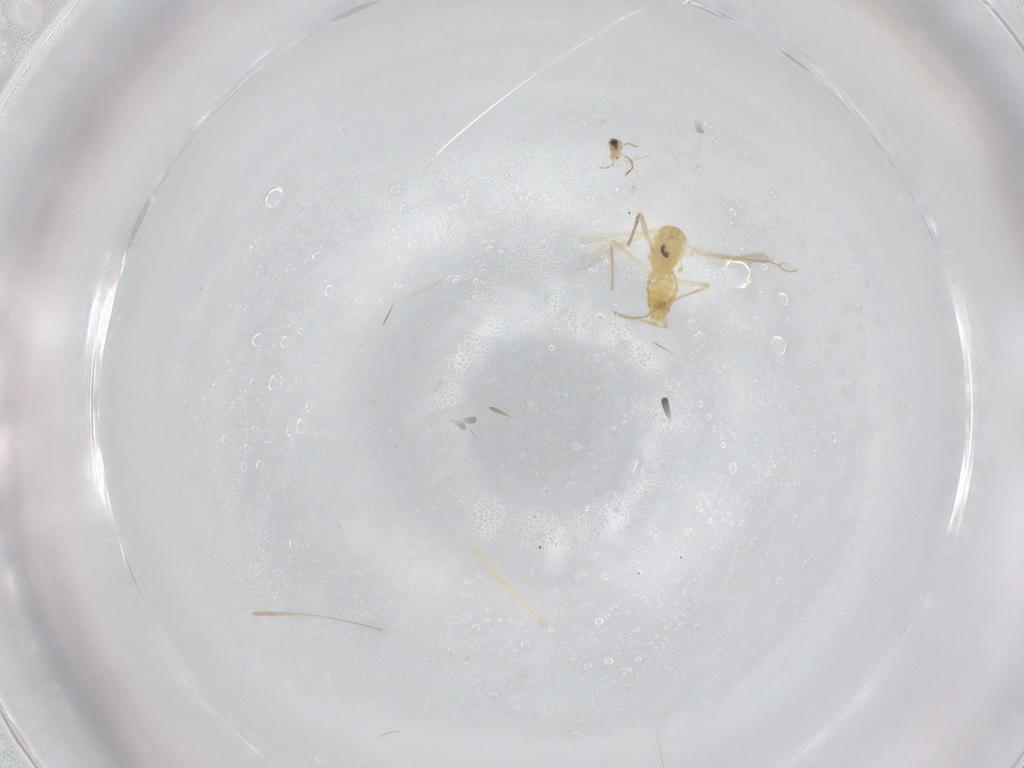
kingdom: Animalia
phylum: Arthropoda
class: Insecta
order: Diptera
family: Chironomidae
